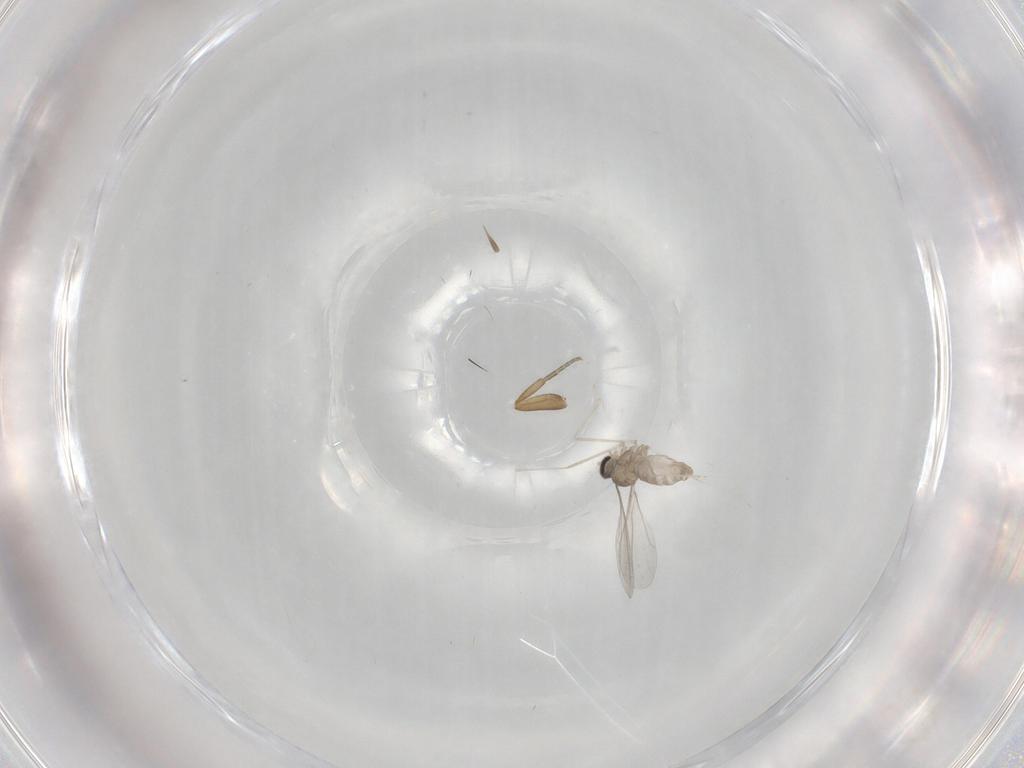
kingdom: Animalia
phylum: Arthropoda
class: Insecta
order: Diptera
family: Cecidomyiidae
